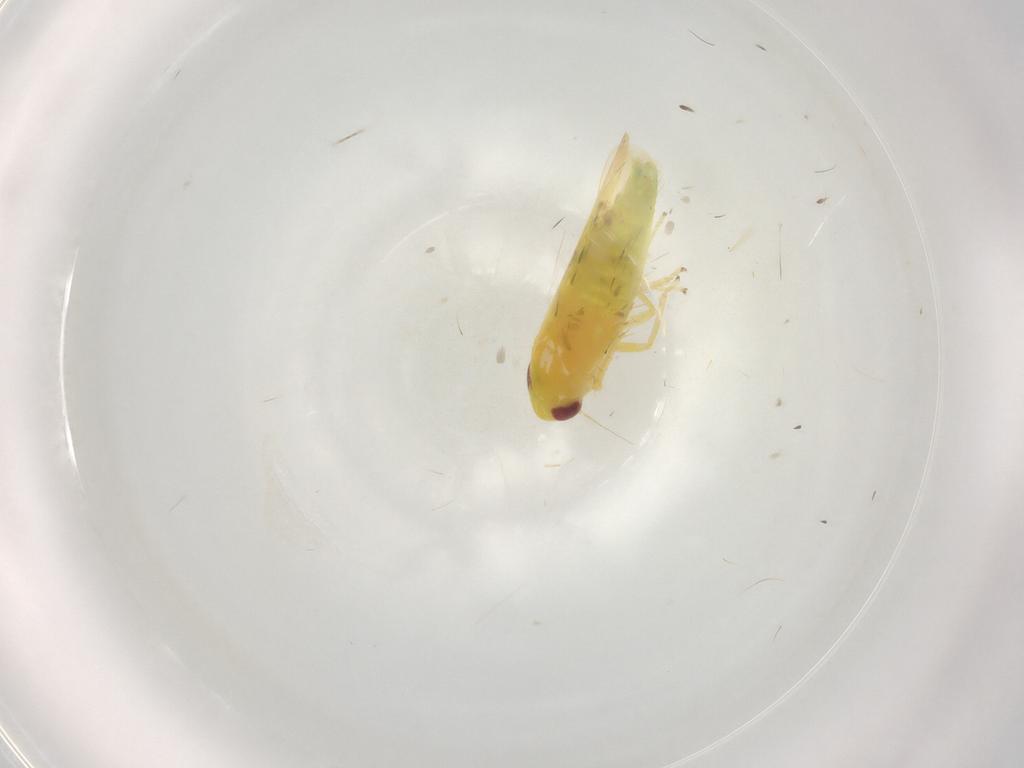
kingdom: Animalia
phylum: Arthropoda
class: Insecta
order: Hemiptera
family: Cicadellidae
